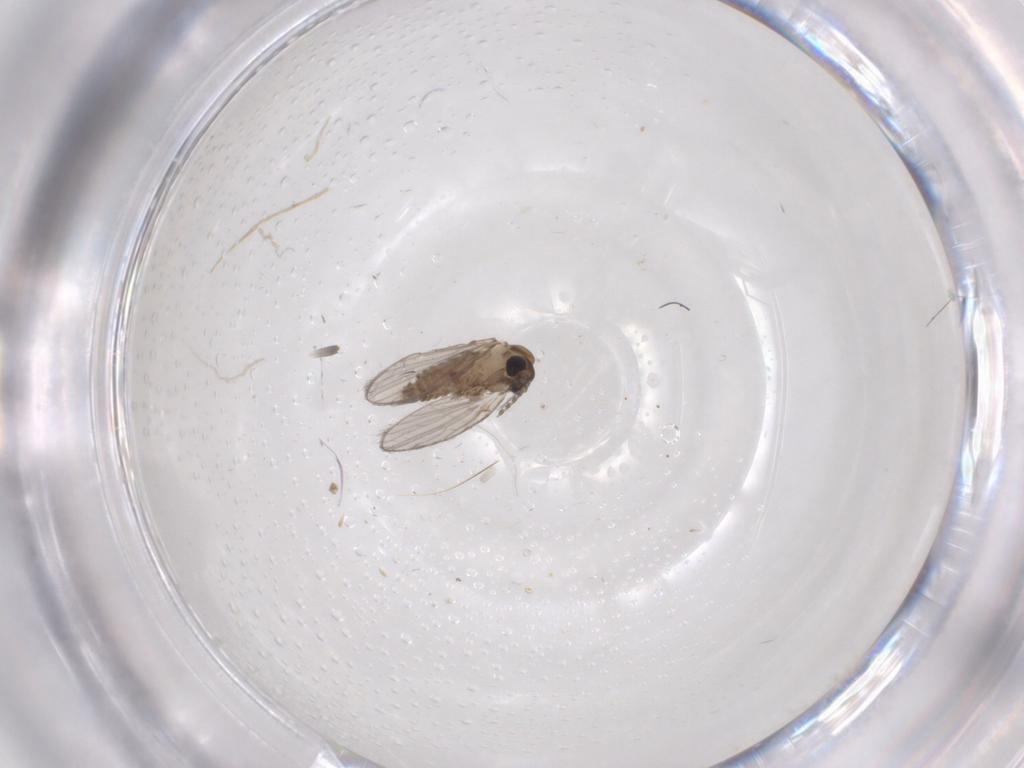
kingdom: Animalia
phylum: Arthropoda
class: Insecta
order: Diptera
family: Psychodidae
